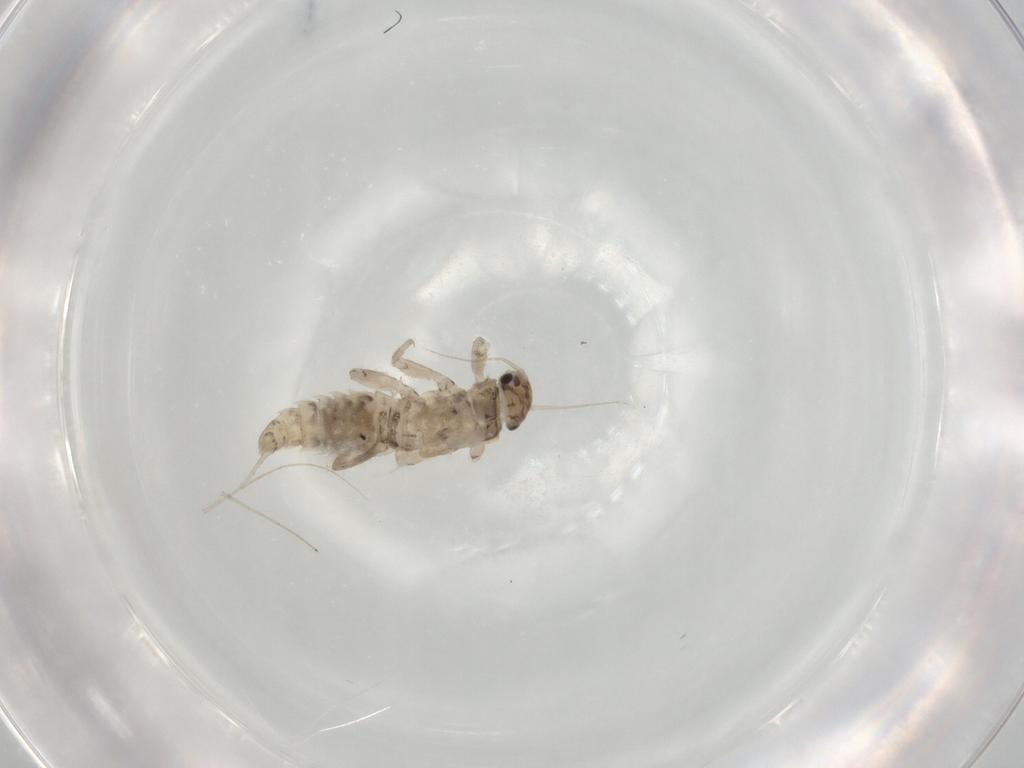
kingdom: Animalia
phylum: Arthropoda
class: Insecta
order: Ephemeroptera
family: Caenidae
